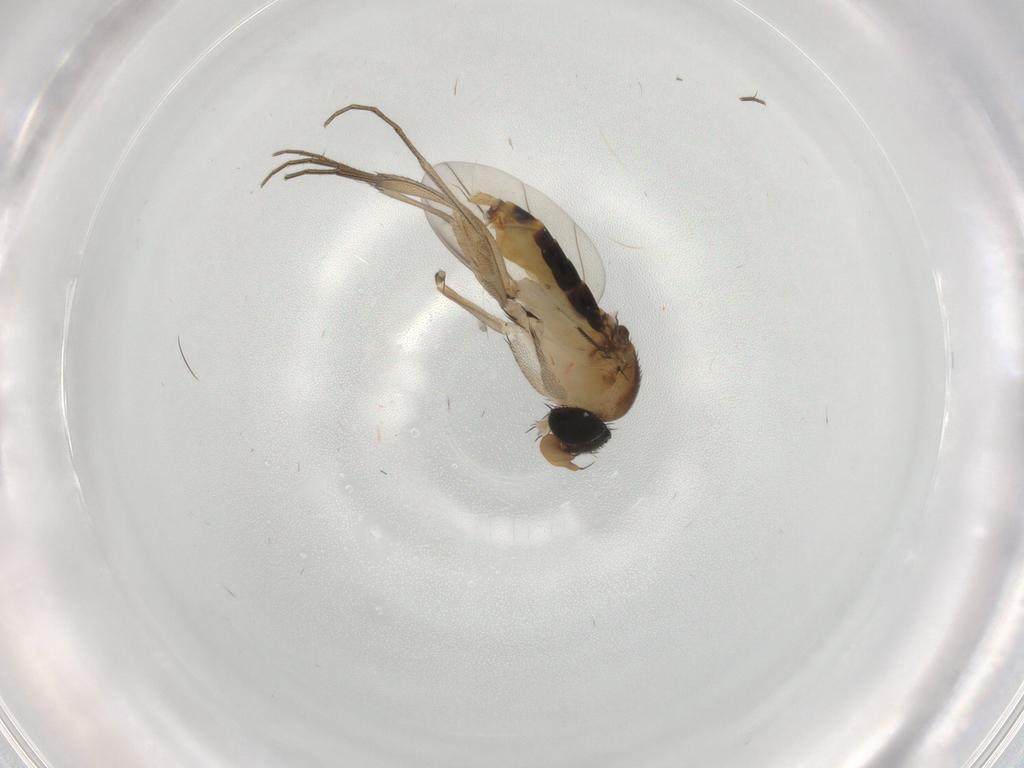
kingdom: Animalia
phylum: Arthropoda
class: Insecta
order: Diptera
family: Phoridae
